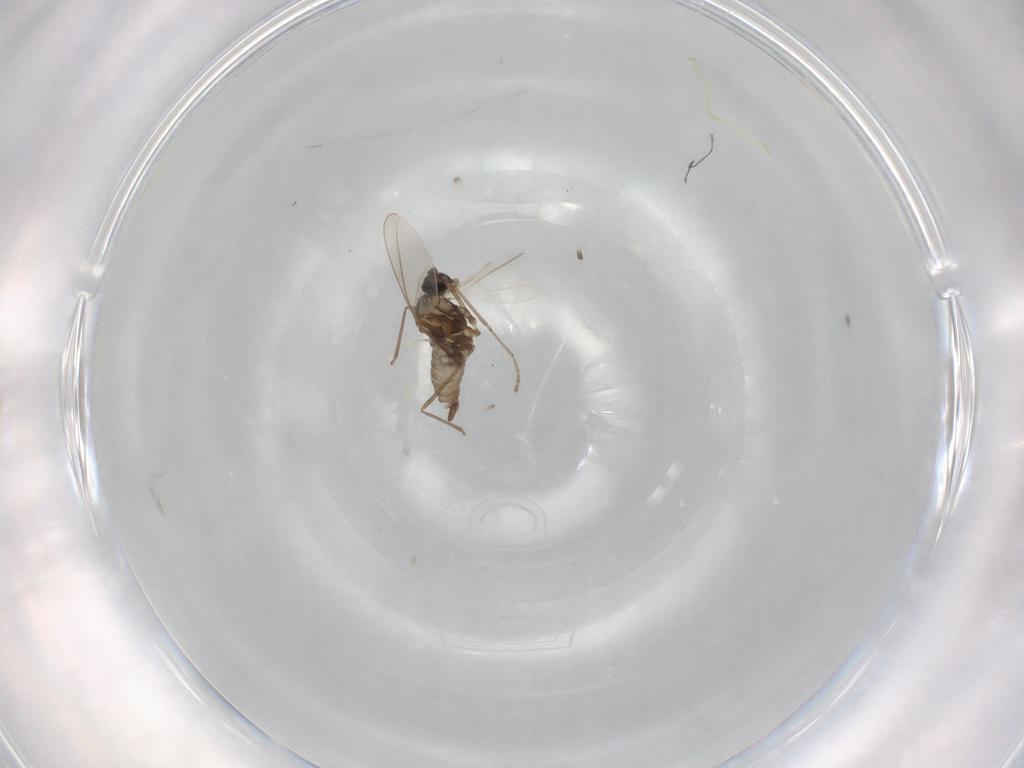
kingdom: Animalia
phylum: Arthropoda
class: Insecta
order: Diptera
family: Cecidomyiidae
